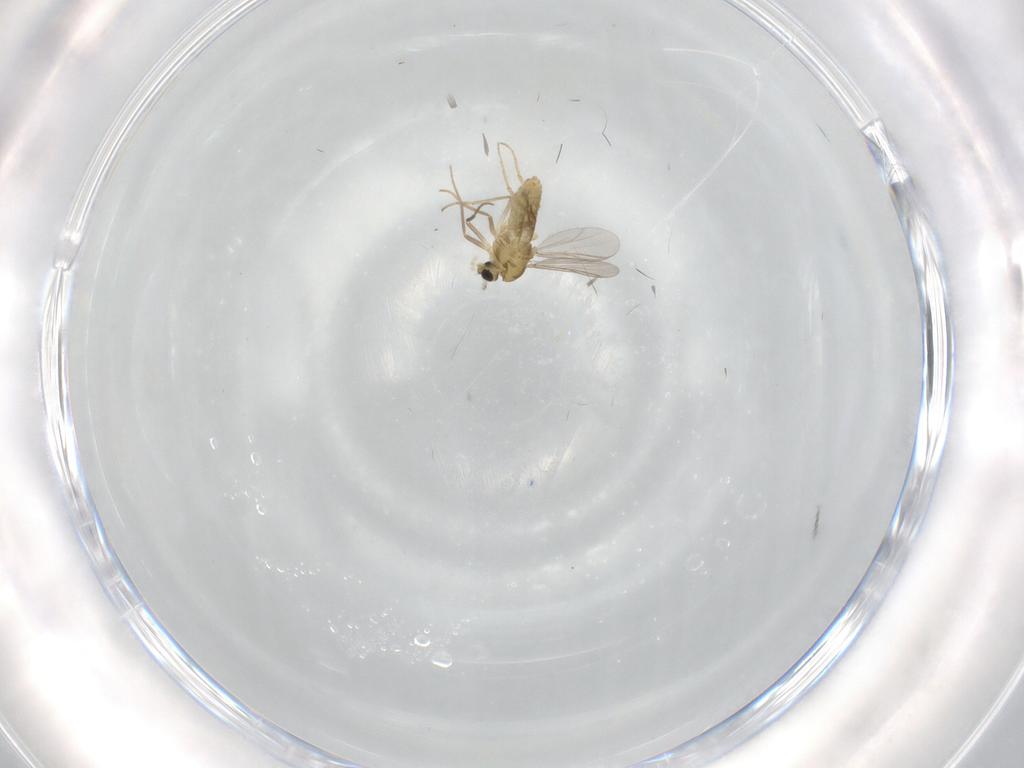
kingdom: Animalia
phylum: Arthropoda
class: Insecta
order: Diptera
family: Chironomidae
